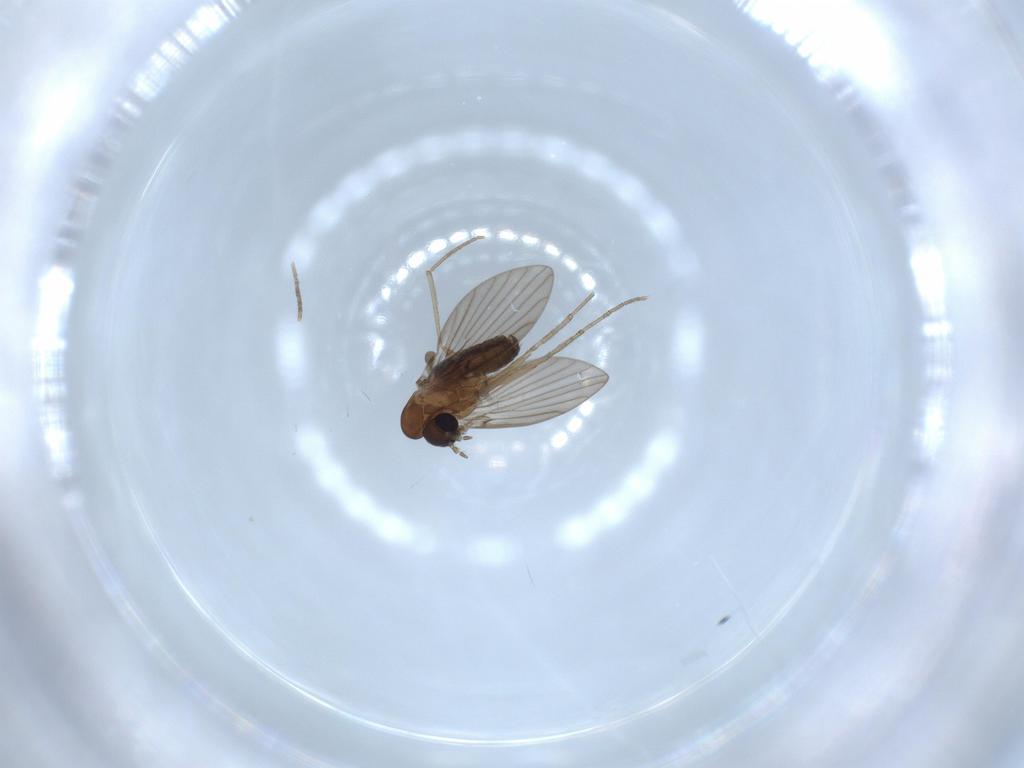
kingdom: Animalia
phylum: Arthropoda
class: Insecta
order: Diptera
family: Psychodidae
